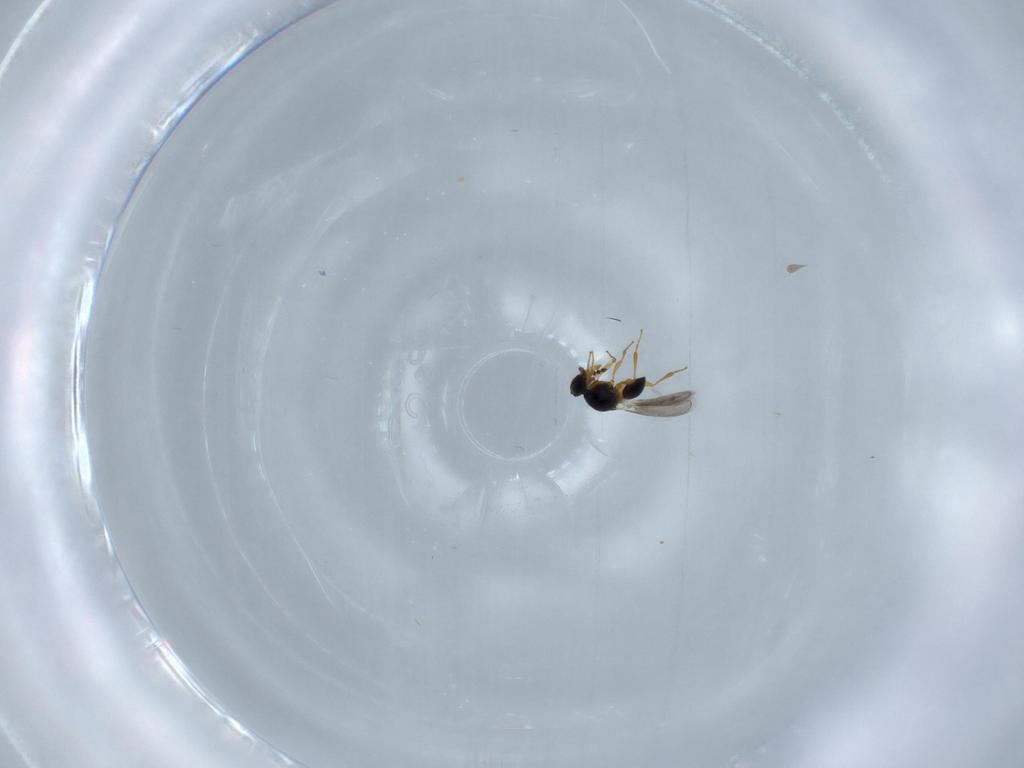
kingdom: Animalia
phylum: Arthropoda
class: Insecta
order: Hymenoptera
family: Platygastridae
